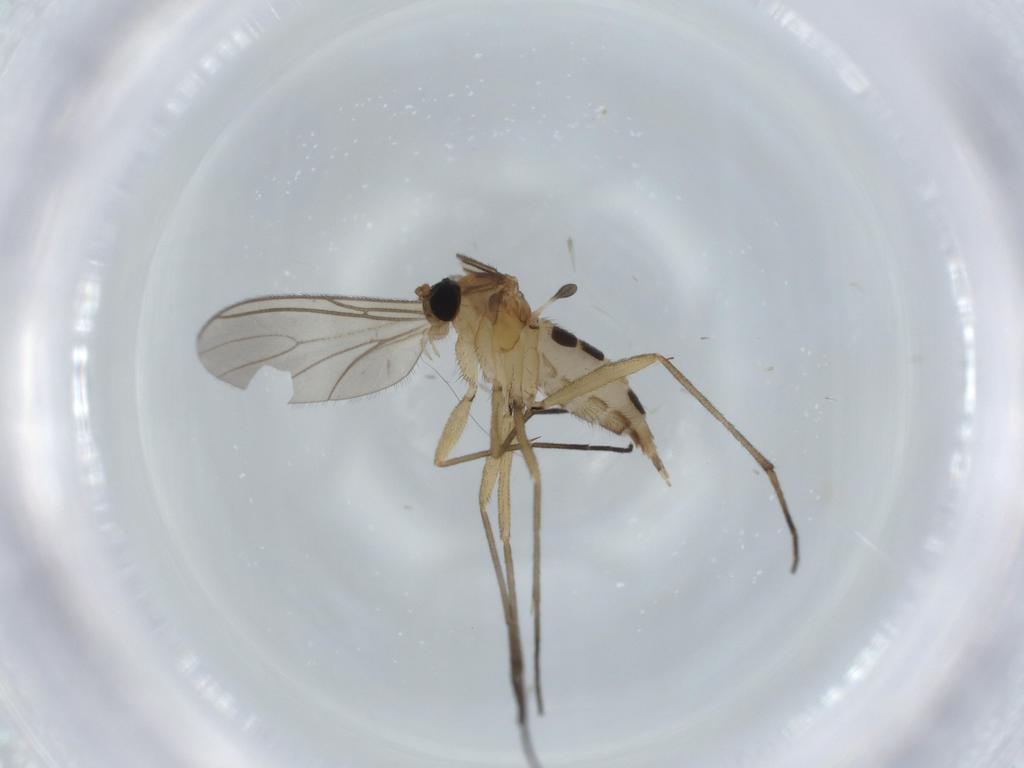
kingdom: Animalia
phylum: Arthropoda
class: Insecta
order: Diptera
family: Sciaridae
